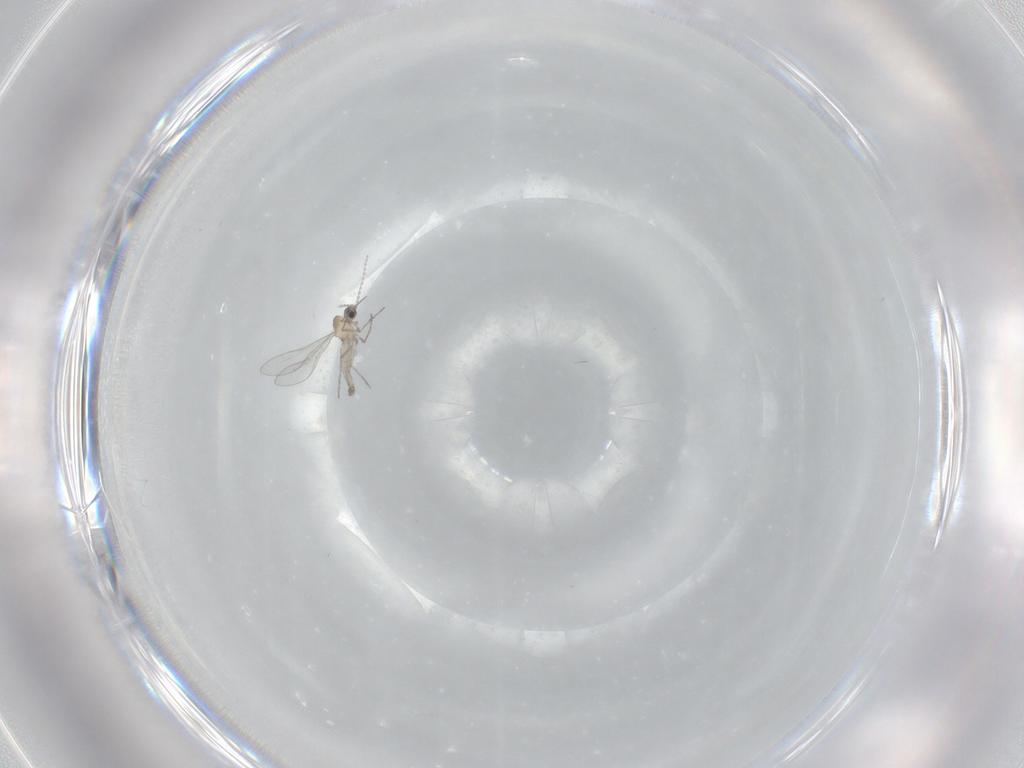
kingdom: Animalia
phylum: Arthropoda
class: Insecta
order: Diptera
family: Cecidomyiidae
